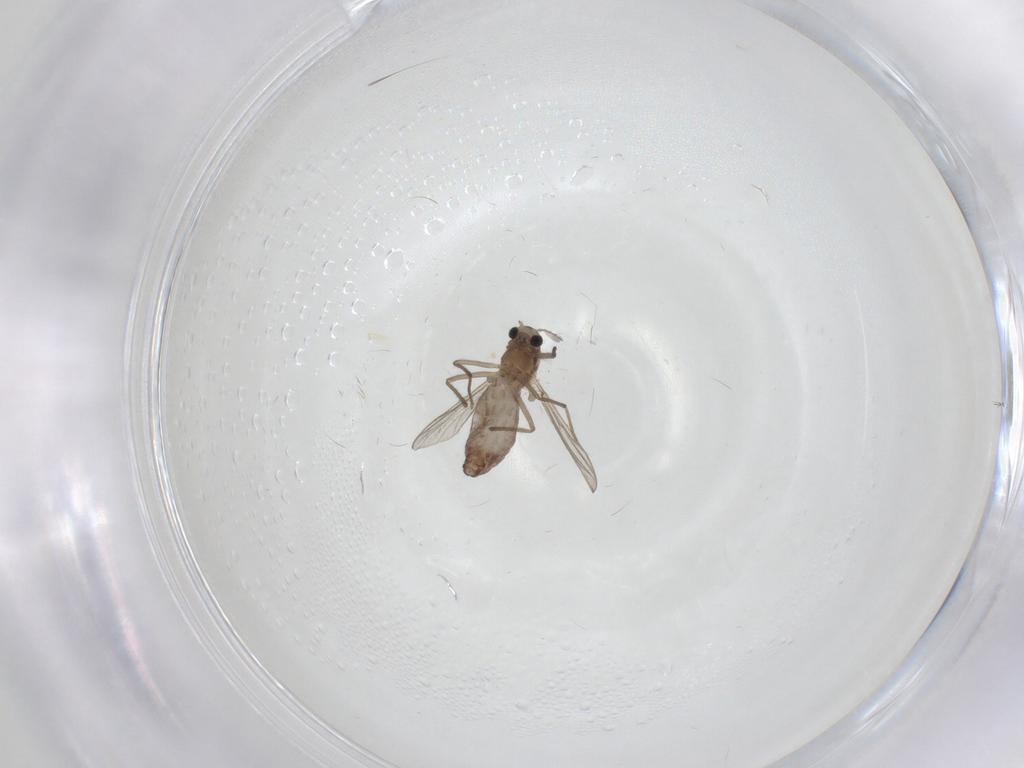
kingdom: Animalia
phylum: Arthropoda
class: Insecta
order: Diptera
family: Chironomidae
